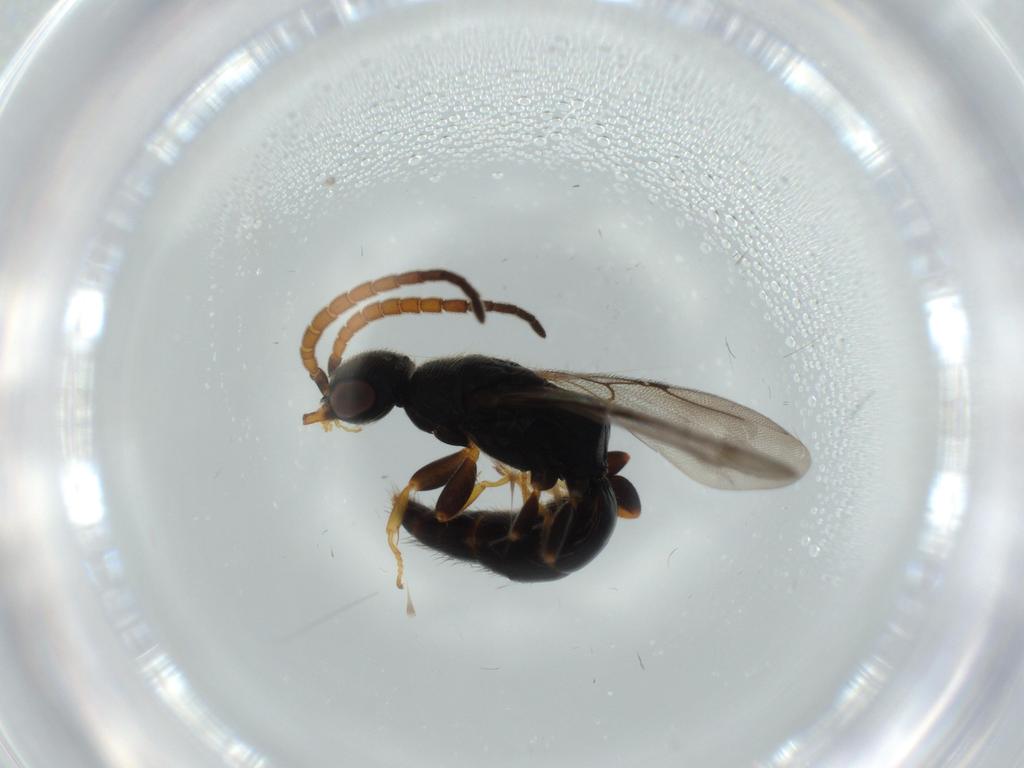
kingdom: Animalia
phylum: Arthropoda
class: Insecta
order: Hymenoptera
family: Bethylidae
